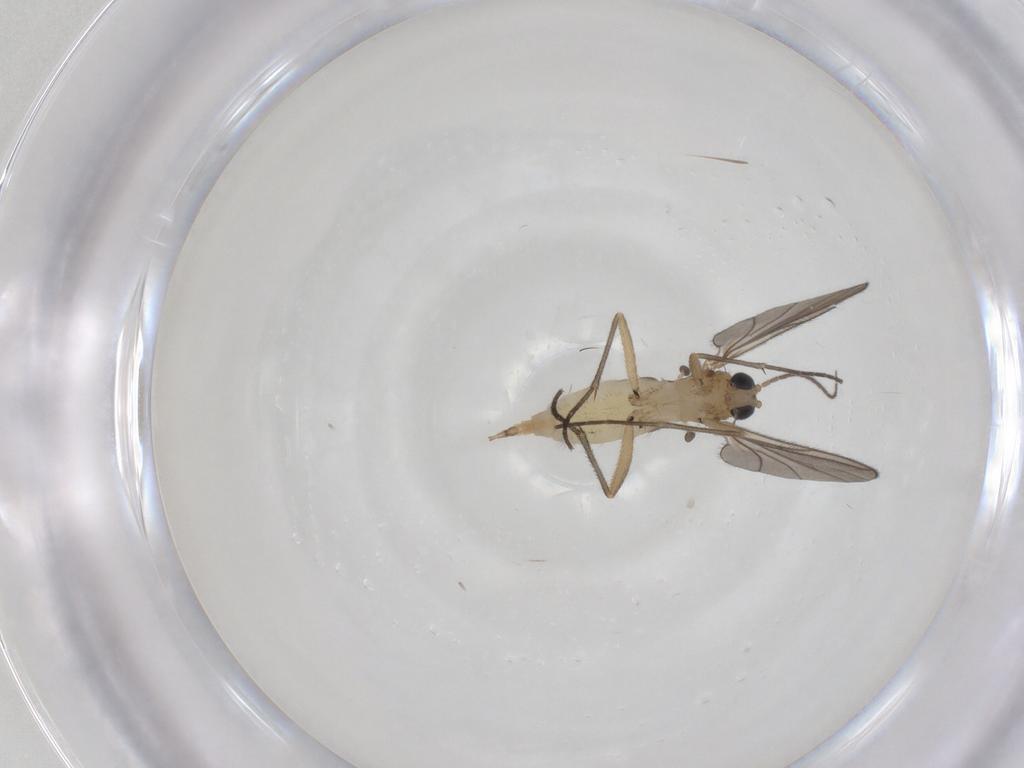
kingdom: Animalia
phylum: Arthropoda
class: Insecta
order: Diptera
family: Sciaridae
